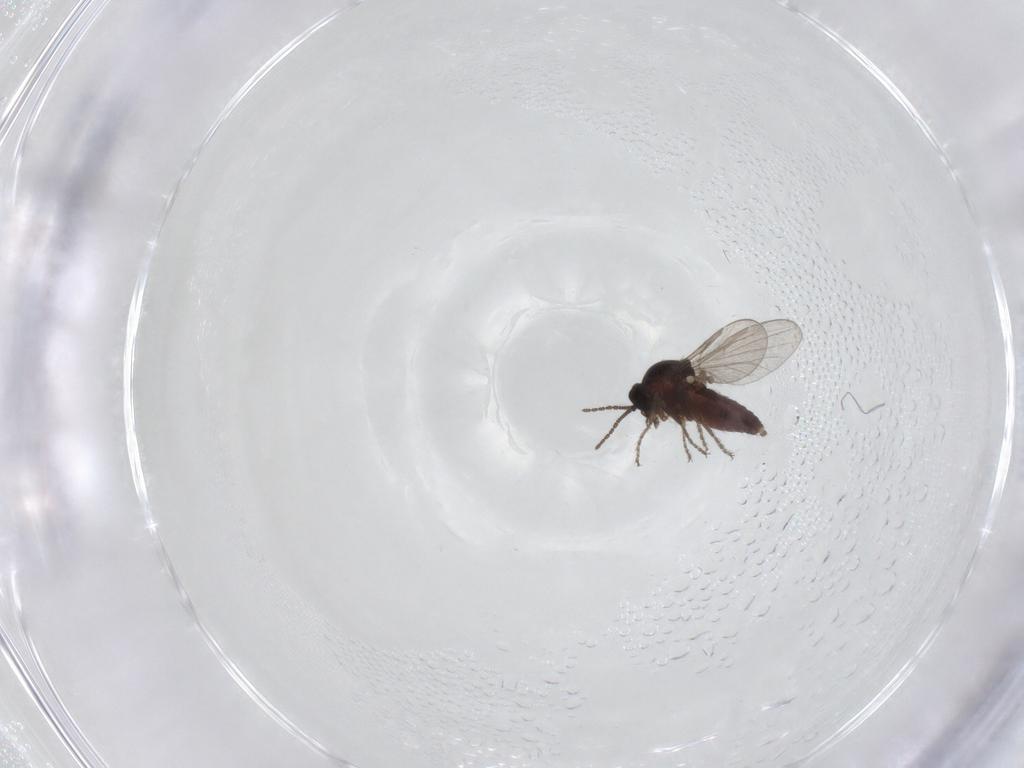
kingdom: Animalia
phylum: Arthropoda
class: Insecta
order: Diptera
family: Ceratopogonidae
